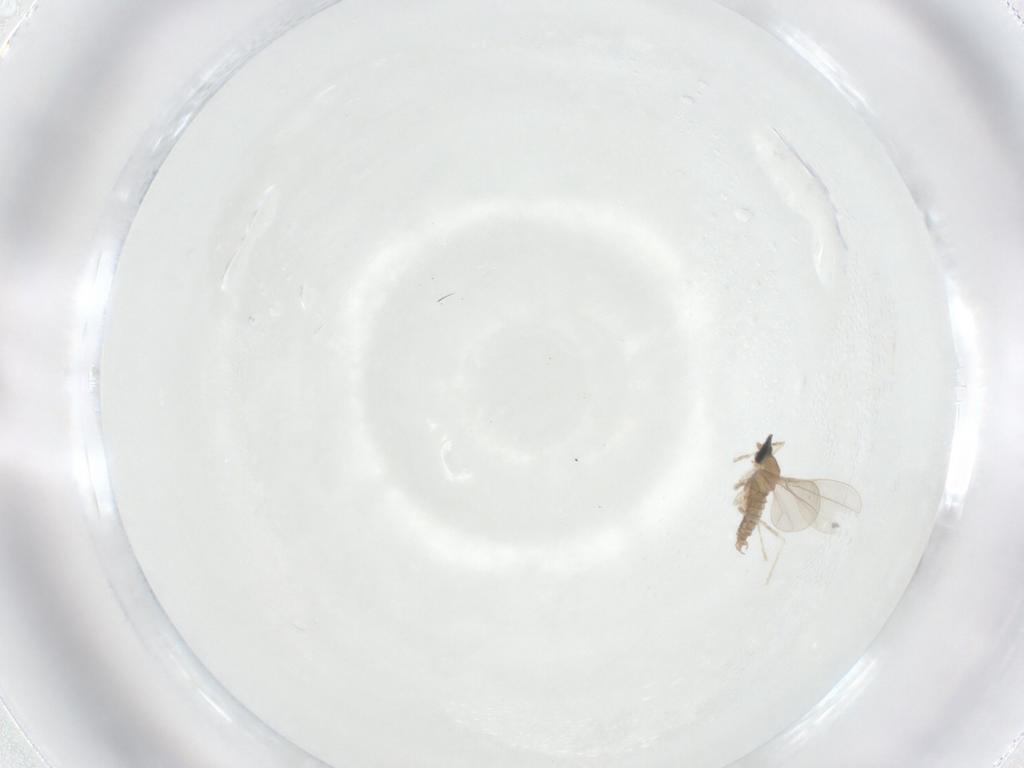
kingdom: Animalia
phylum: Arthropoda
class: Insecta
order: Diptera
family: Cecidomyiidae
